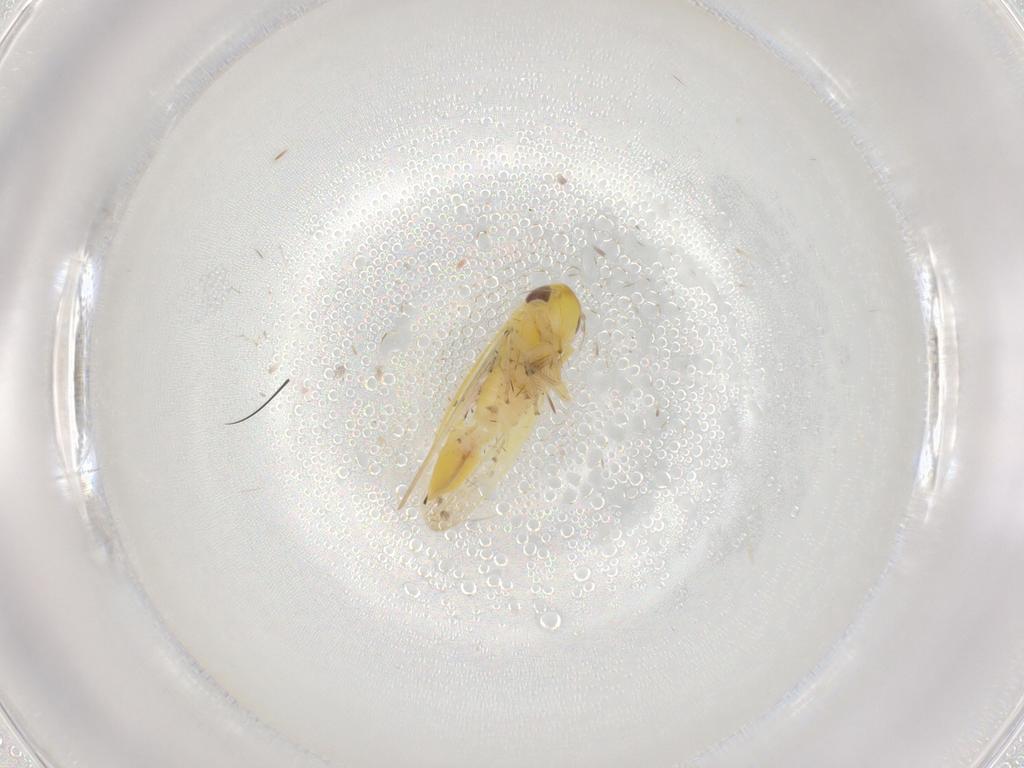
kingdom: Animalia
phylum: Arthropoda
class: Insecta
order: Hemiptera
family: Cicadellidae
